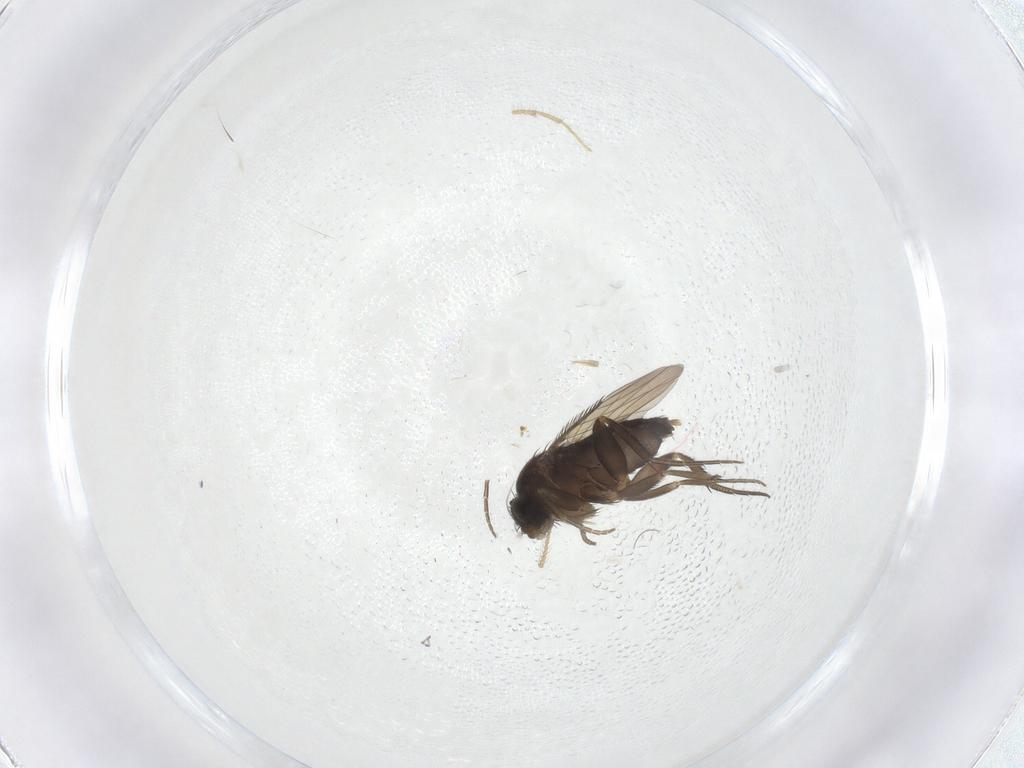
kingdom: Animalia
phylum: Arthropoda
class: Insecta
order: Diptera
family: Phoridae
